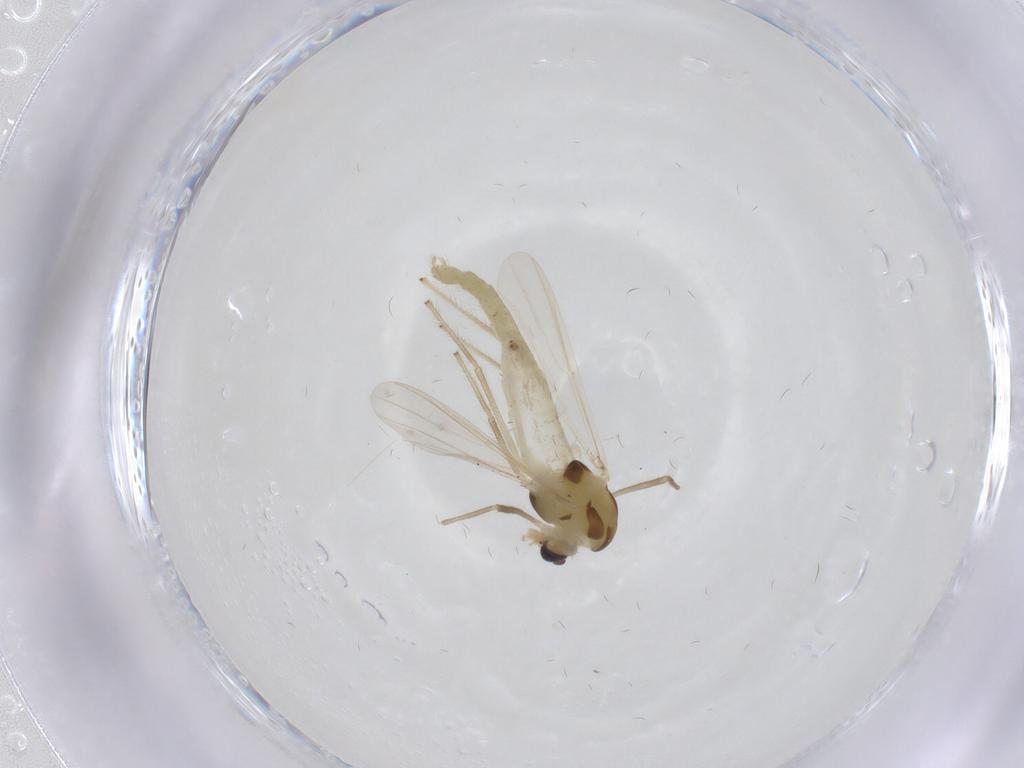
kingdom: Animalia
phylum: Arthropoda
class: Insecta
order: Diptera
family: Chironomidae
